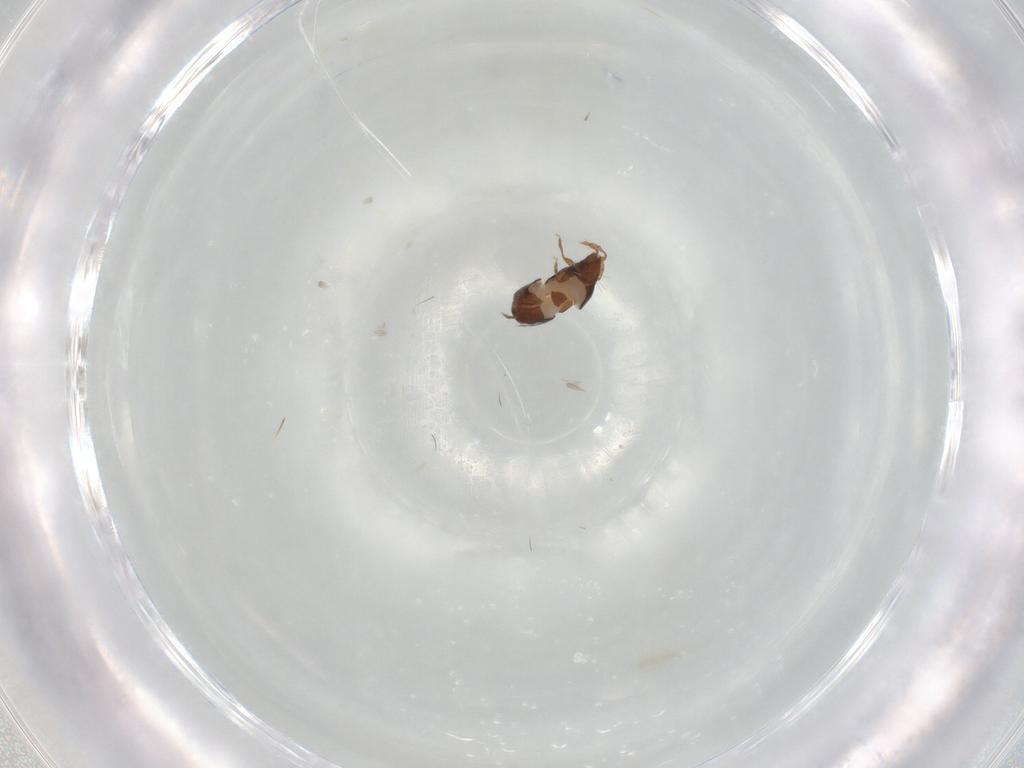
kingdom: Animalia
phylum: Arthropoda
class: Arachnida
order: Sarcoptiformes
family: Oribatulidae
